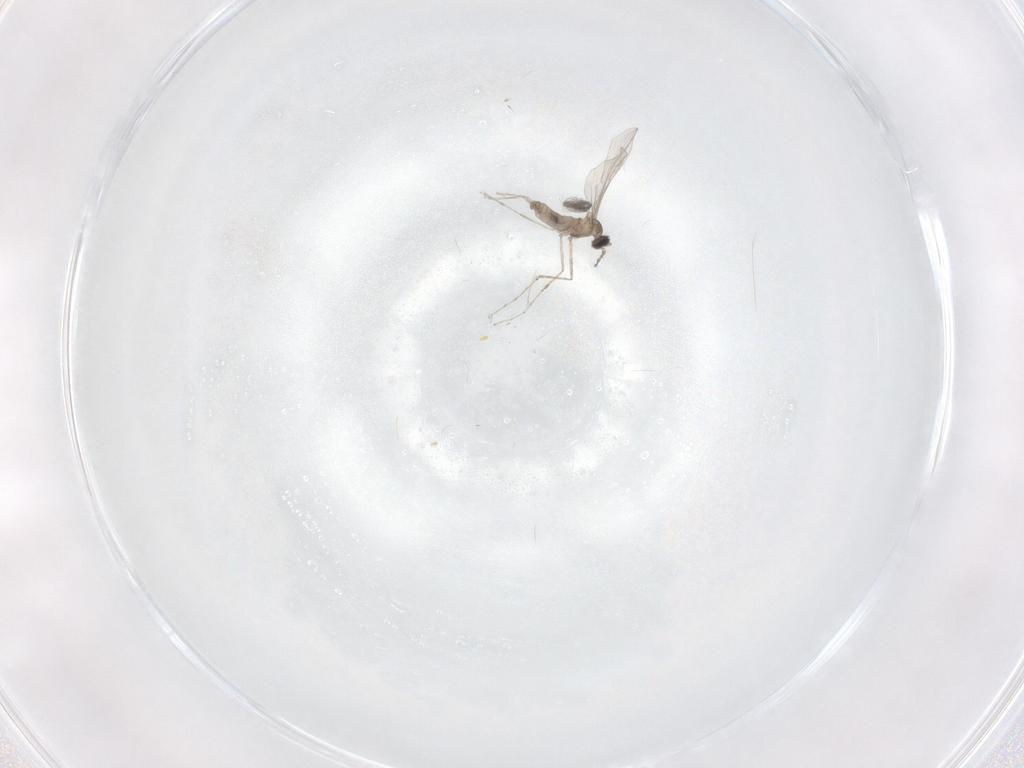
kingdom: Animalia
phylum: Arthropoda
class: Insecta
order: Diptera
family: Cecidomyiidae
